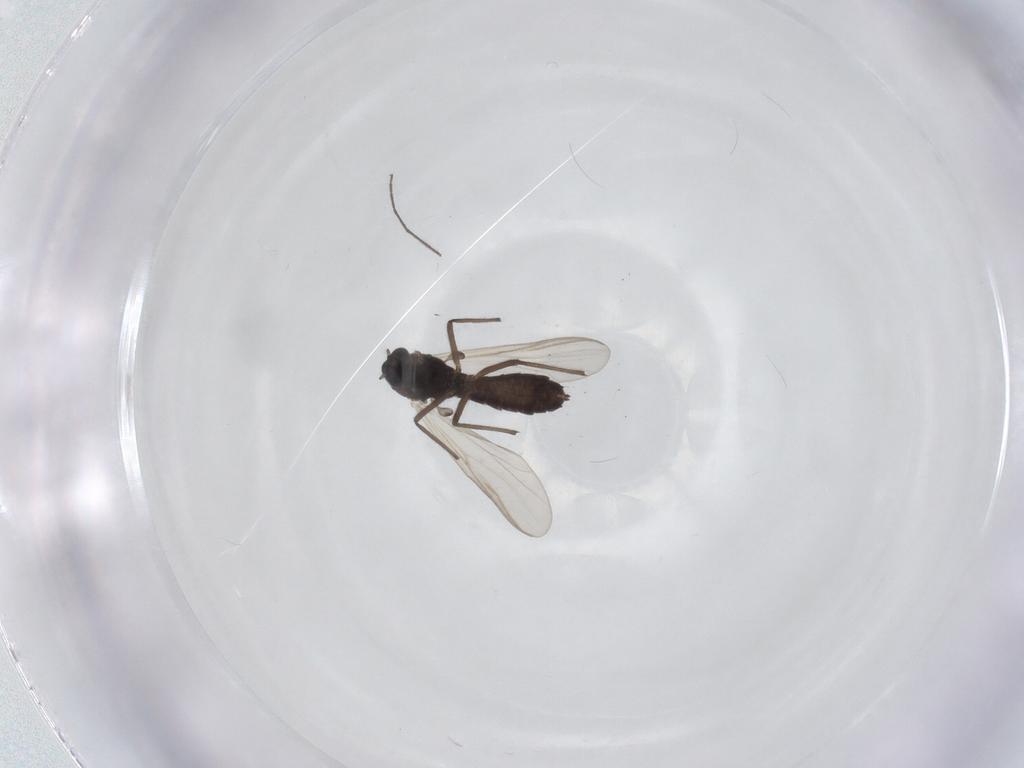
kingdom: Animalia
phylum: Arthropoda
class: Insecta
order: Diptera
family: Chironomidae
